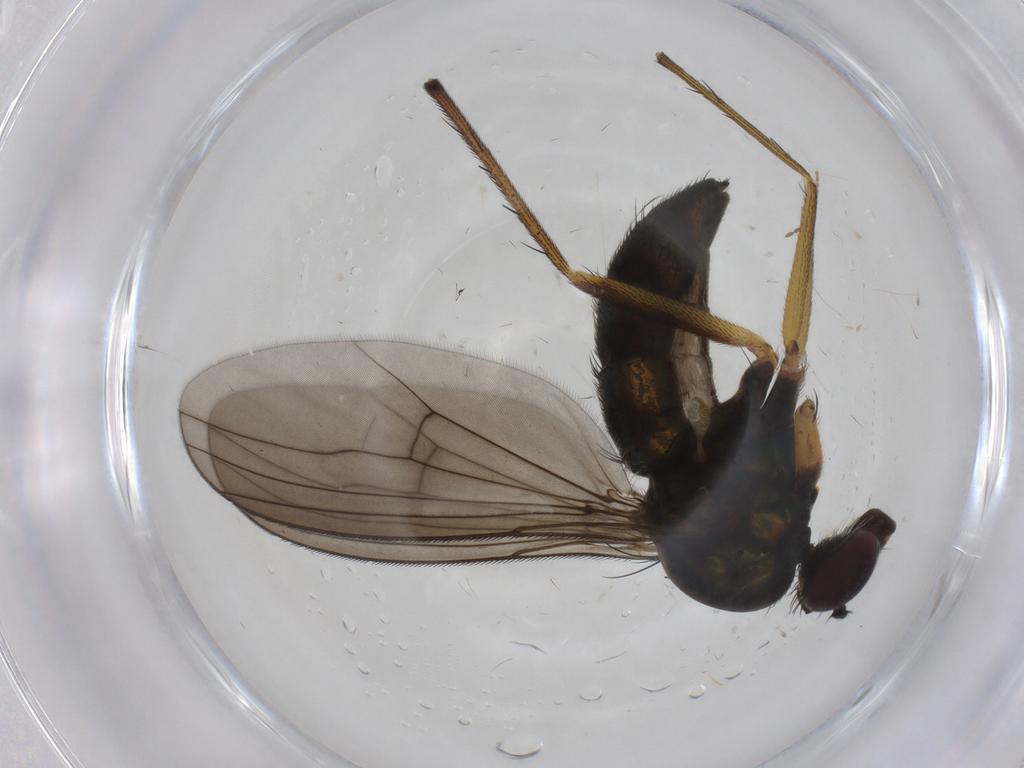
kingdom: Animalia
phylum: Arthropoda
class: Insecta
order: Diptera
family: Dolichopodidae
